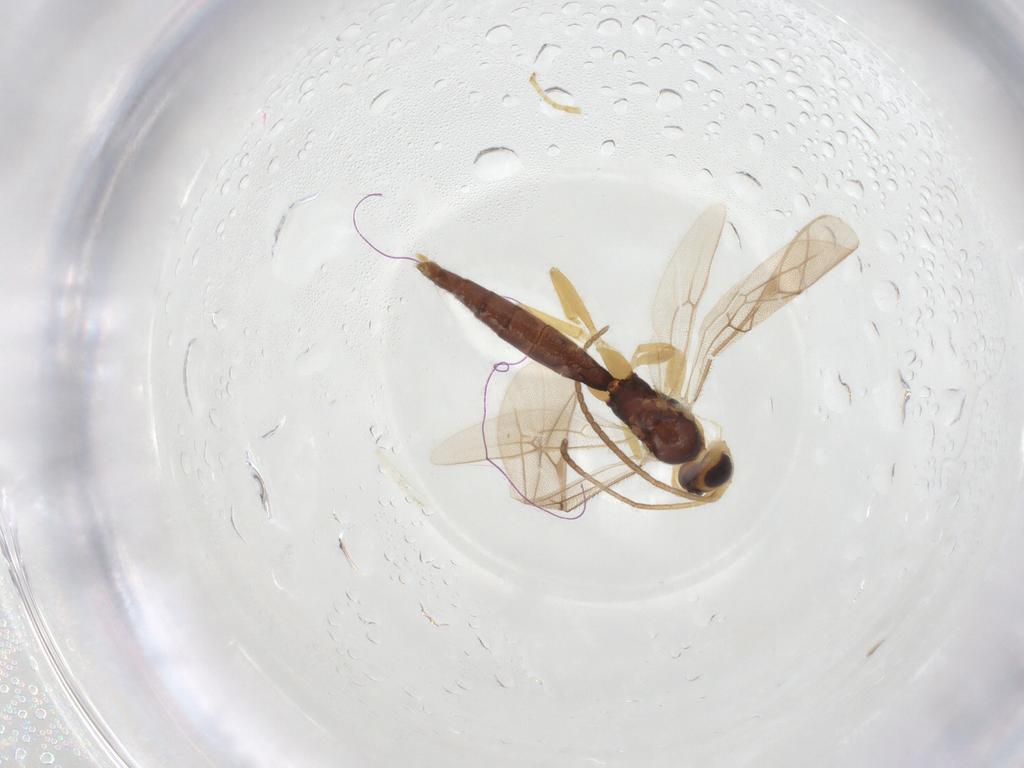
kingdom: Animalia
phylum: Arthropoda
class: Insecta
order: Hymenoptera
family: Ichneumonidae
